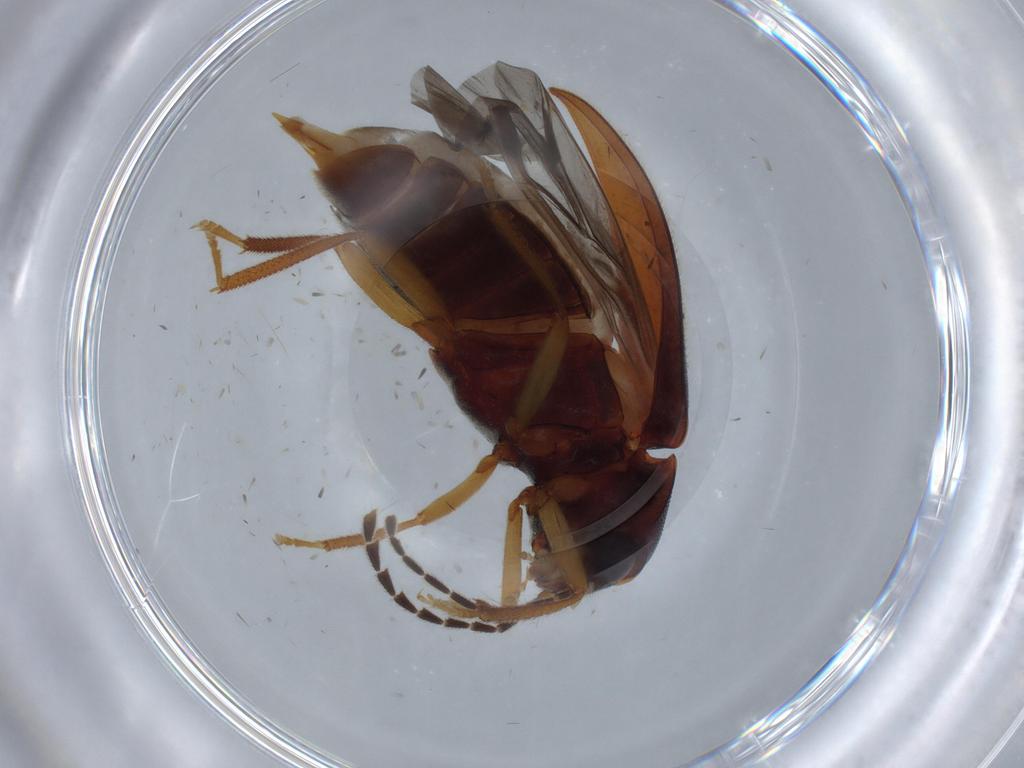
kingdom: Animalia
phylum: Arthropoda
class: Insecta
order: Coleoptera
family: Ptilodactylidae
